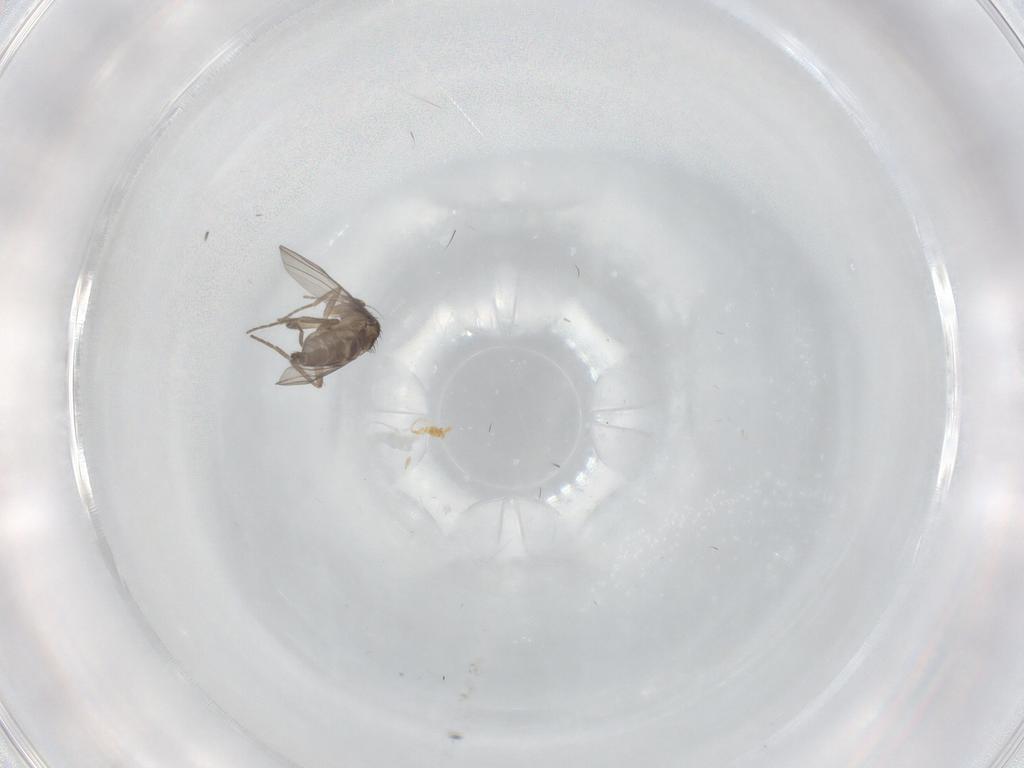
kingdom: Animalia
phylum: Arthropoda
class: Insecta
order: Diptera
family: Phoridae
